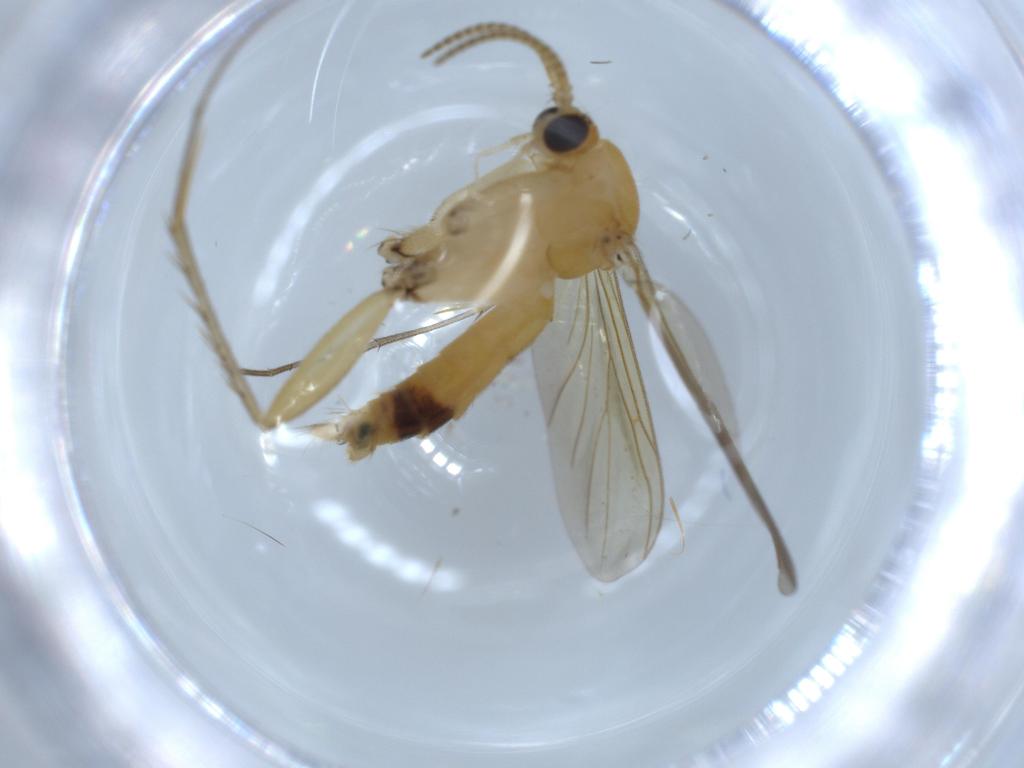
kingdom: Animalia
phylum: Arthropoda
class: Insecta
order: Diptera
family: Mycetophilidae
